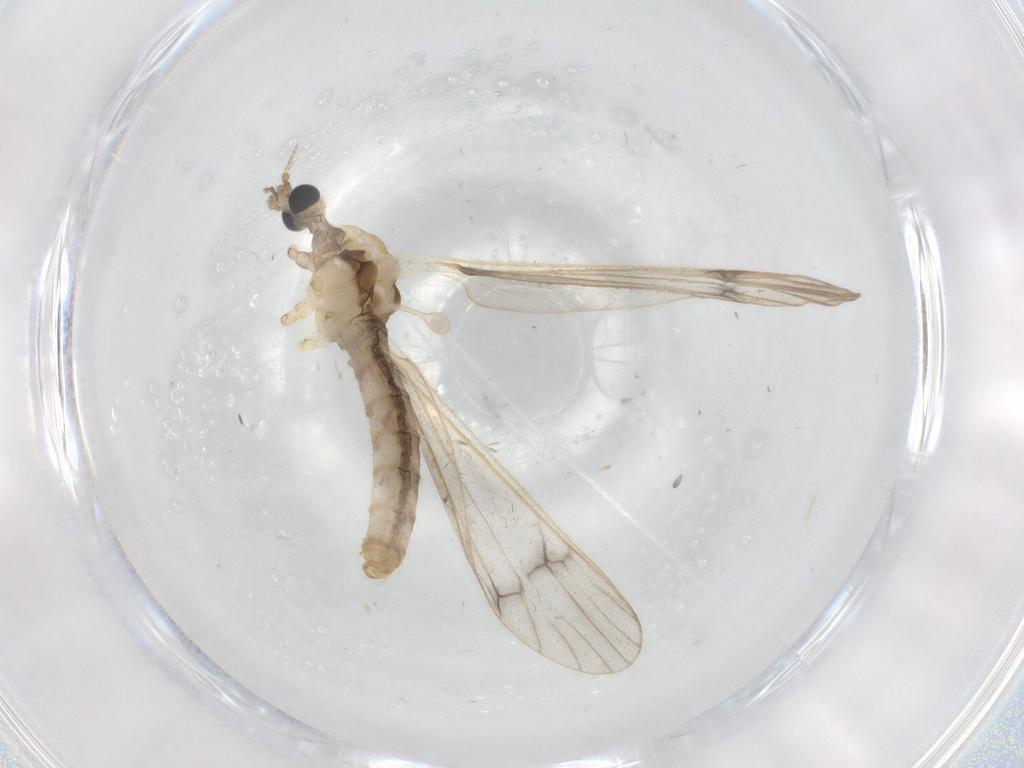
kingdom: Animalia
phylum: Arthropoda
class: Insecta
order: Diptera
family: Cecidomyiidae
